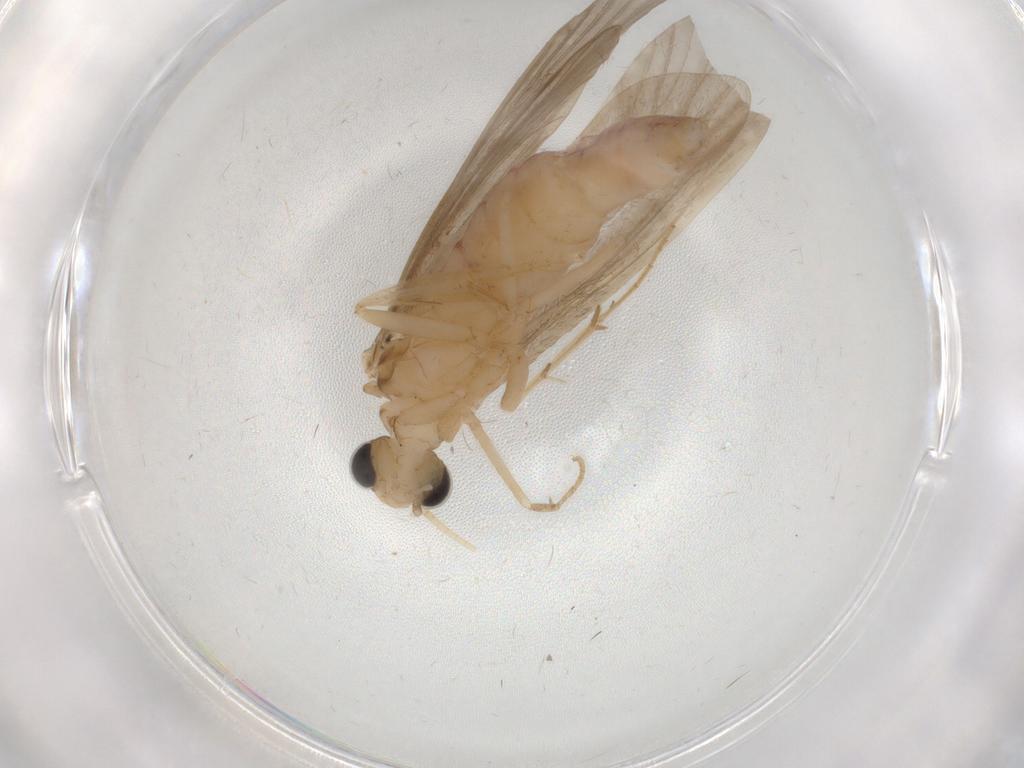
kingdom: Animalia
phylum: Arthropoda
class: Insecta
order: Trichoptera
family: Ecnomidae
